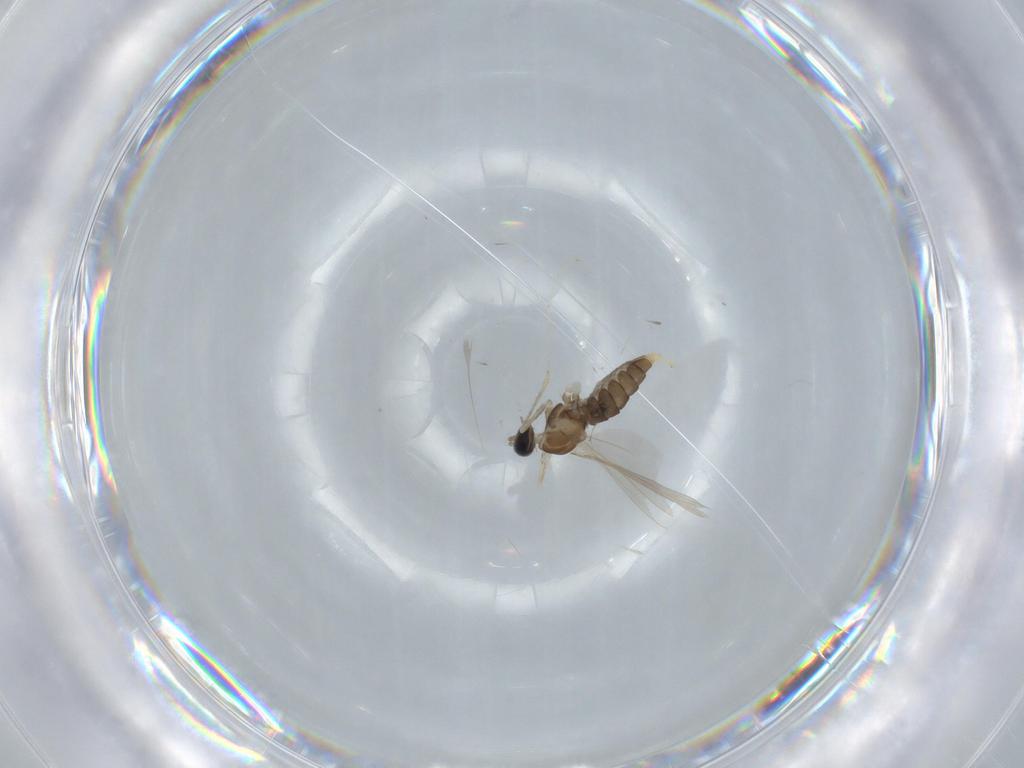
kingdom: Animalia
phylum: Arthropoda
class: Insecta
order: Diptera
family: Cecidomyiidae
